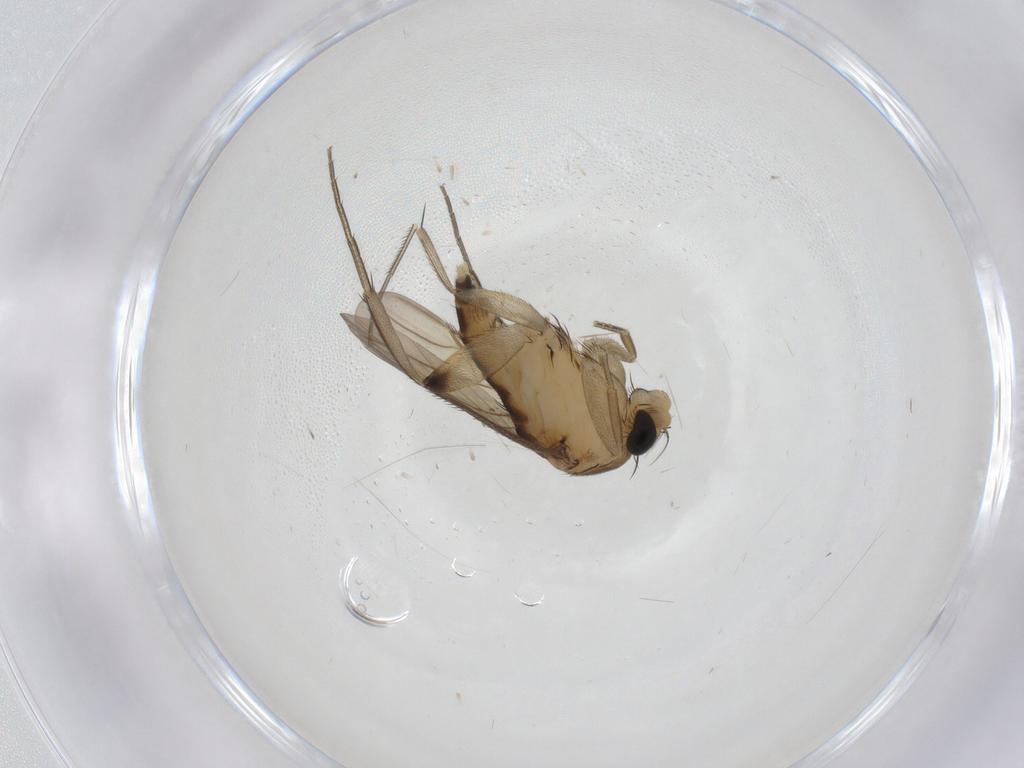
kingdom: Animalia
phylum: Arthropoda
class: Insecta
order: Diptera
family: Phoridae
